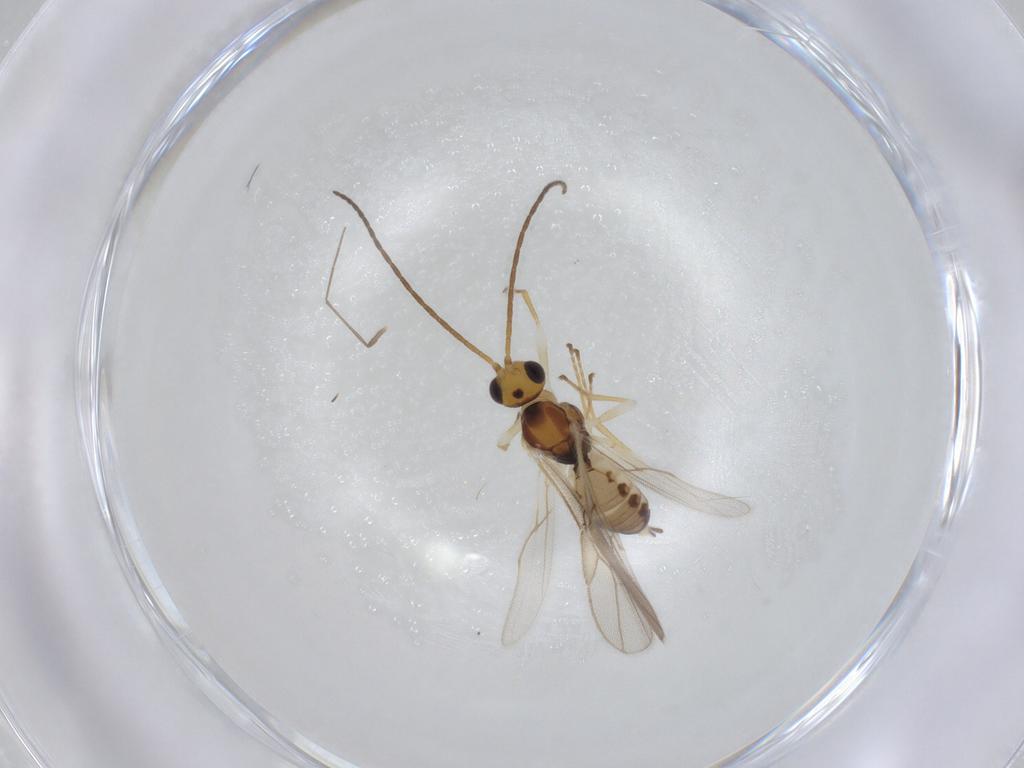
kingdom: Animalia
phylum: Arthropoda
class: Insecta
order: Hymenoptera
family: Braconidae
